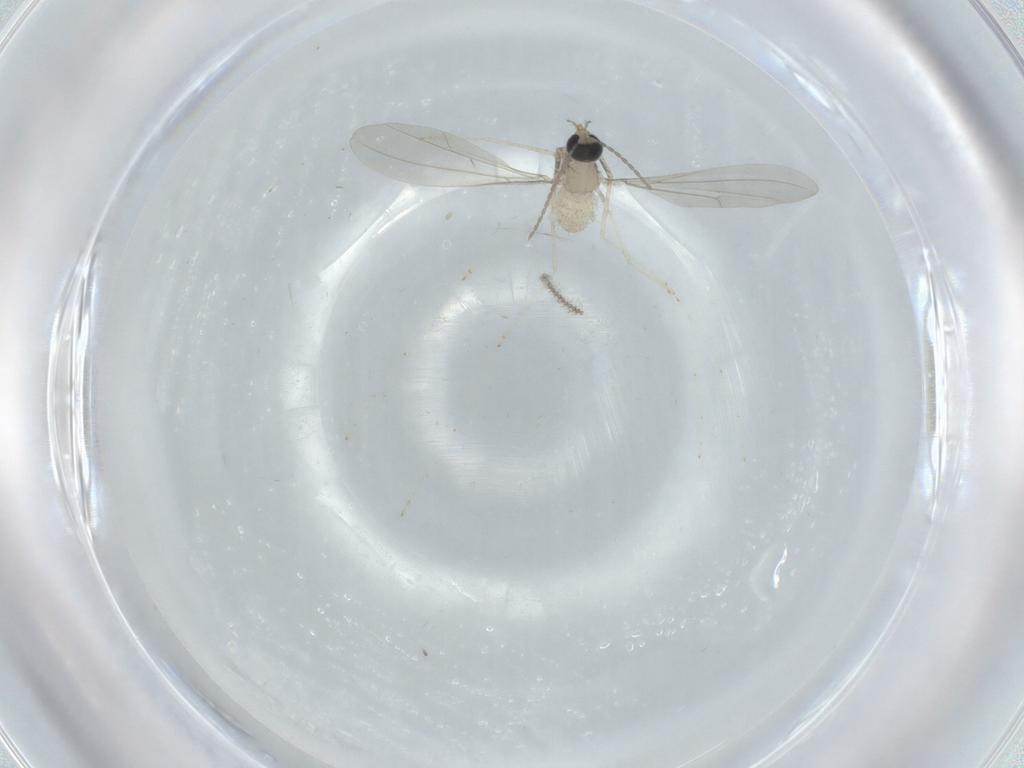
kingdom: Animalia
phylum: Arthropoda
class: Insecta
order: Diptera
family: Cecidomyiidae
